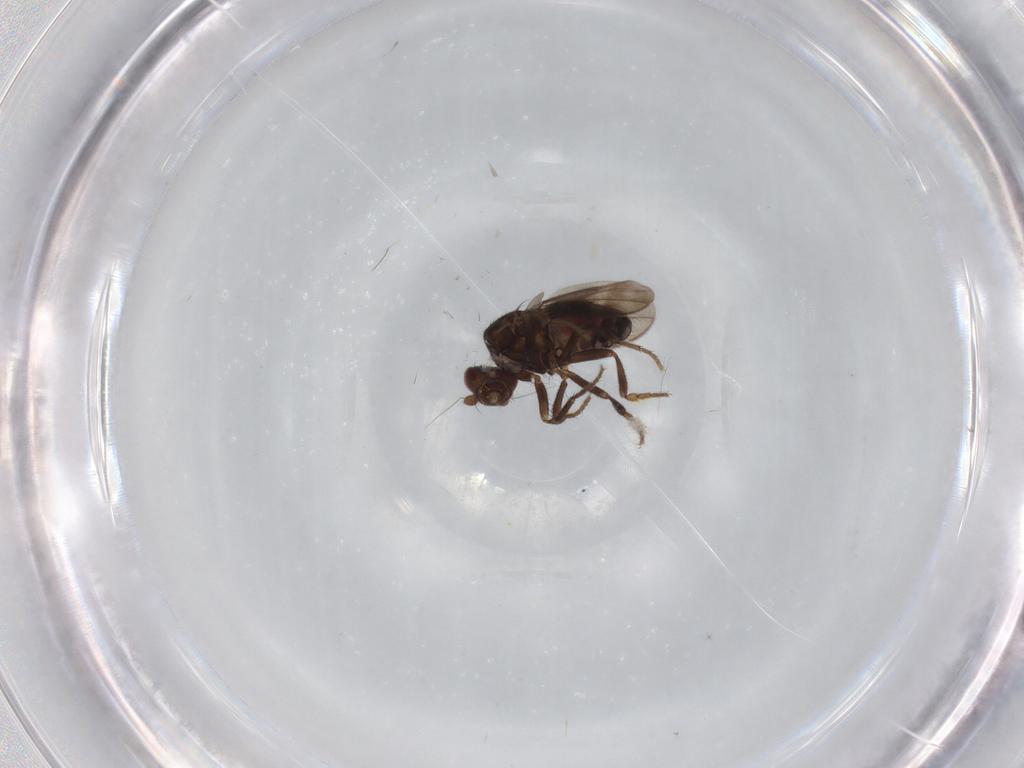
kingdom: Animalia
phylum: Arthropoda
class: Insecta
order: Diptera
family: Sphaeroceridae
